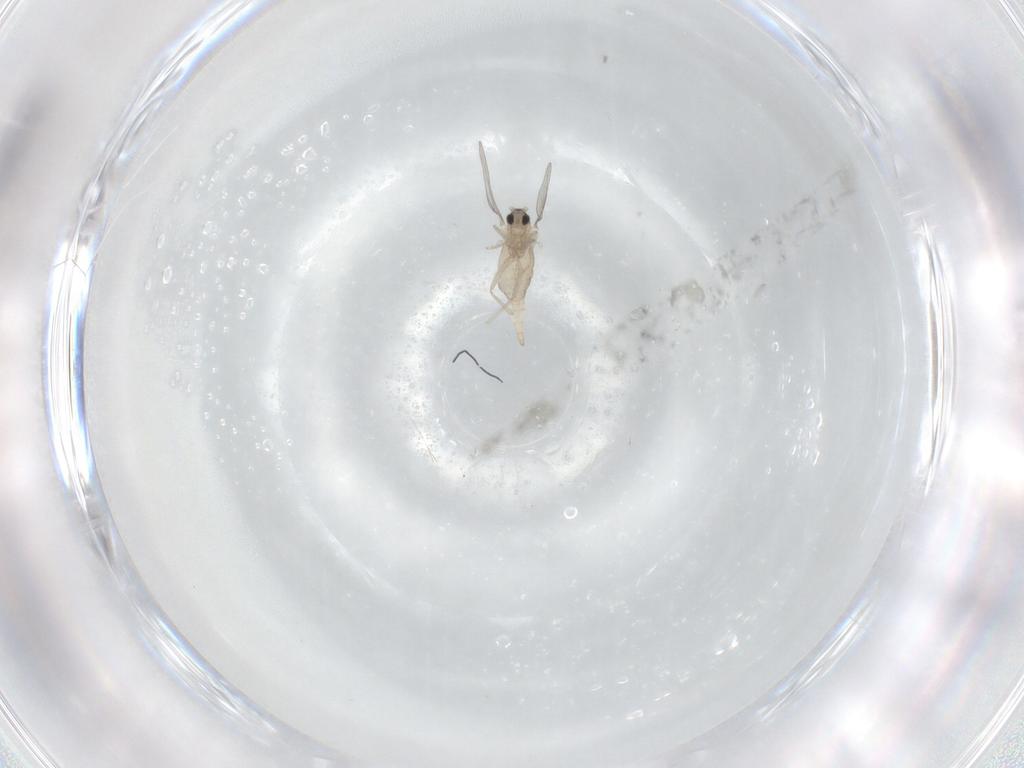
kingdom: Animalia
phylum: Arthropoda
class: Insecta
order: Diptera
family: Cecidomyiidae
